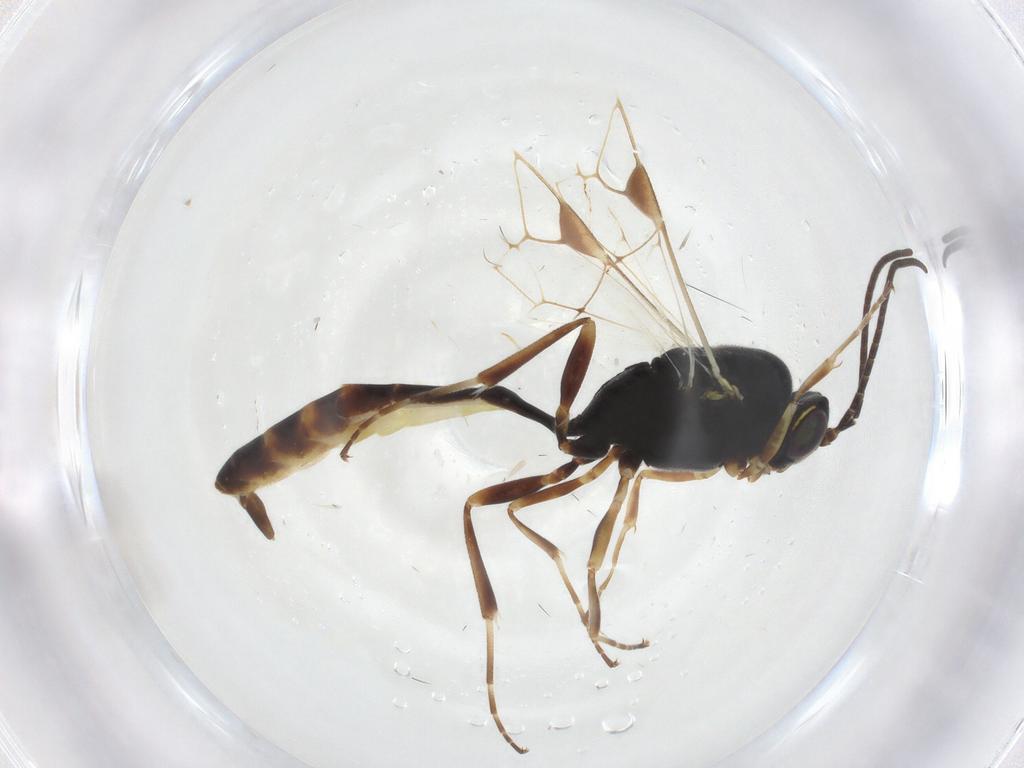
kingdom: Animalia
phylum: Arthropoda
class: Insecta
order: Hymenoptera
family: Ichneumonidae
